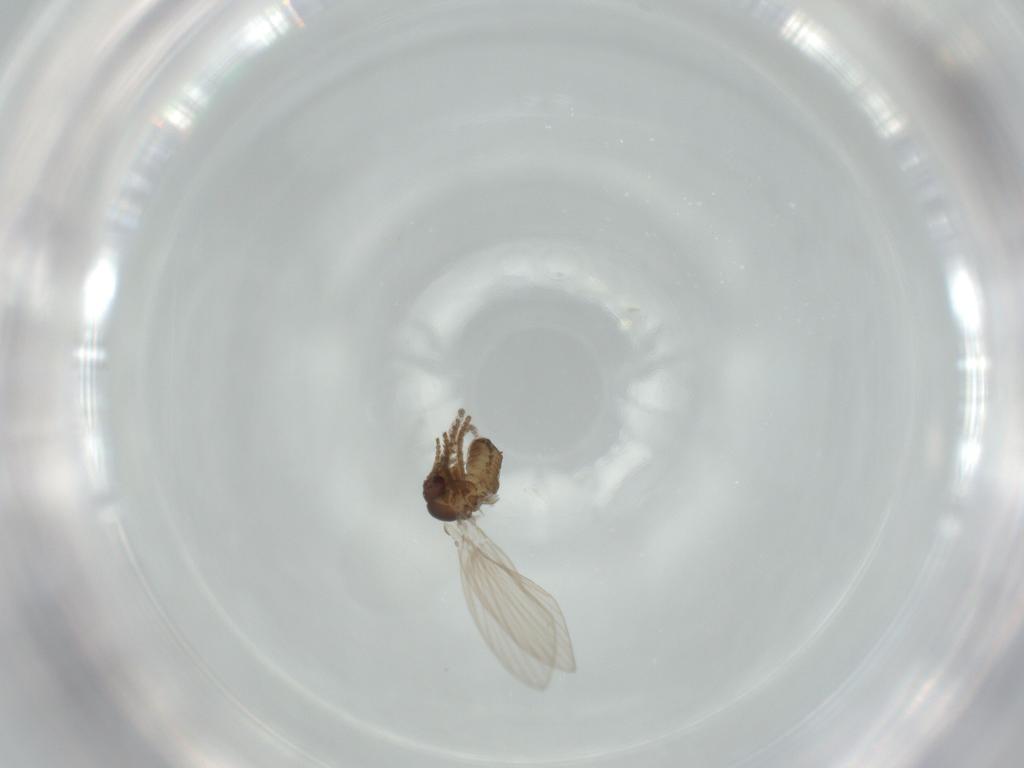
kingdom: Animalia
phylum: Arthropoda
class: Insecta
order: Diptera
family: Psychodidae
